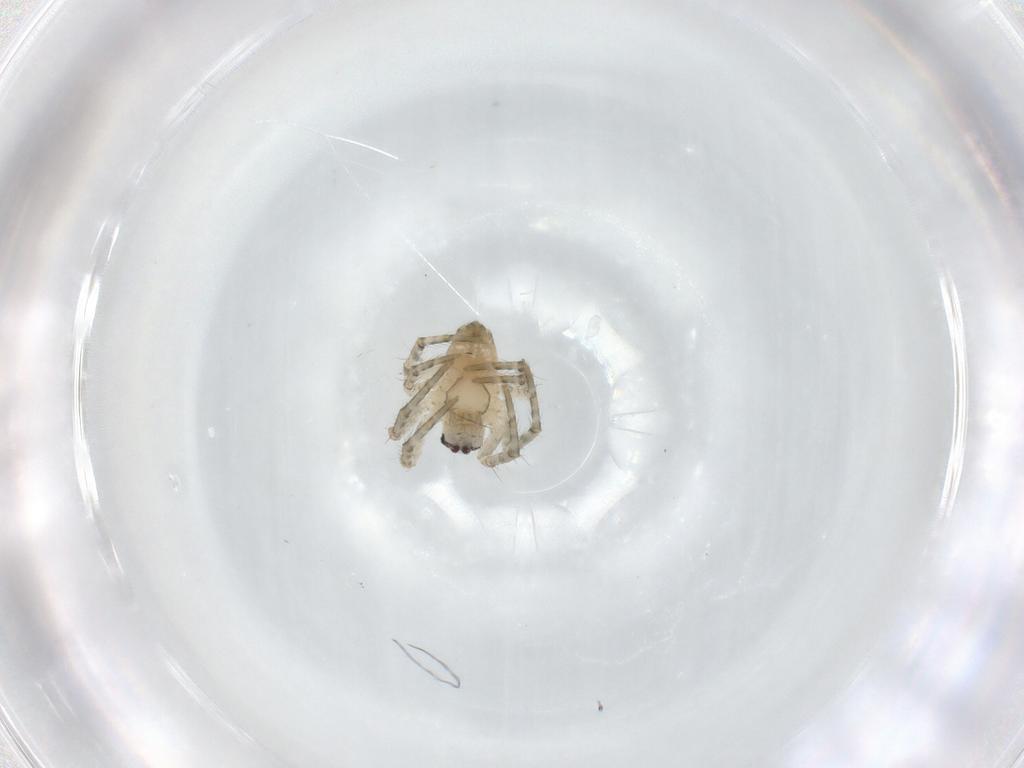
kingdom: Animalia
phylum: Arthropoda
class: Arachnida
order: Araneae
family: Araneidae
